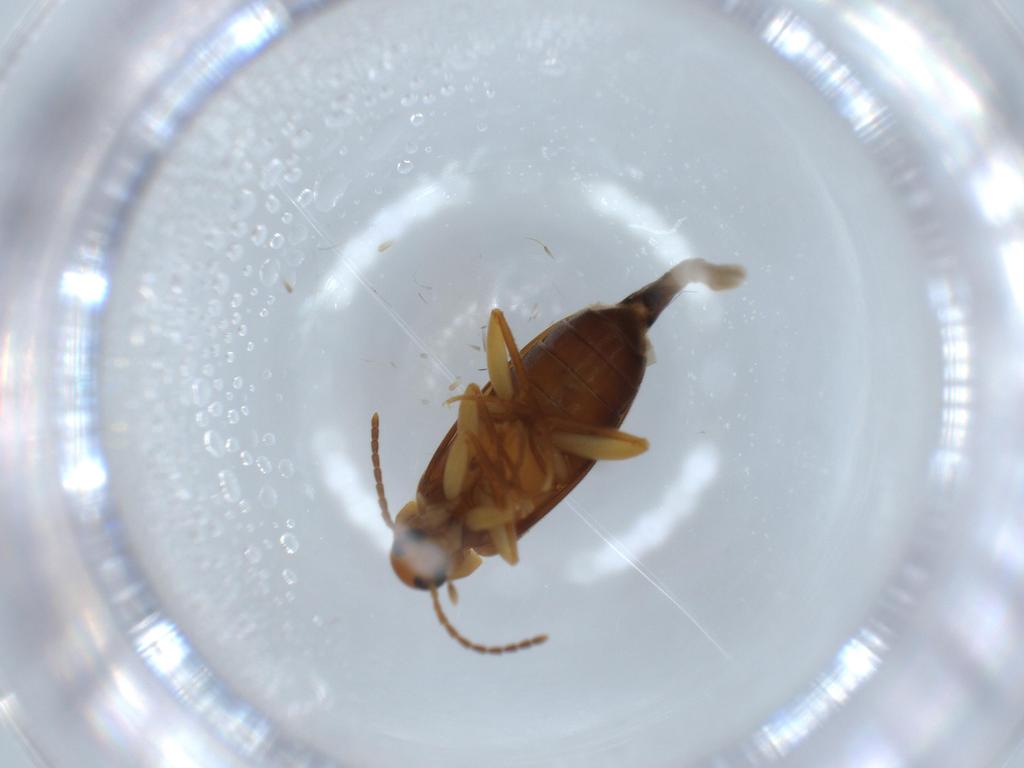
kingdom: Animalia
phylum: Arthropoda
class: Insecta
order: Coleoptera
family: Scraptiidae
